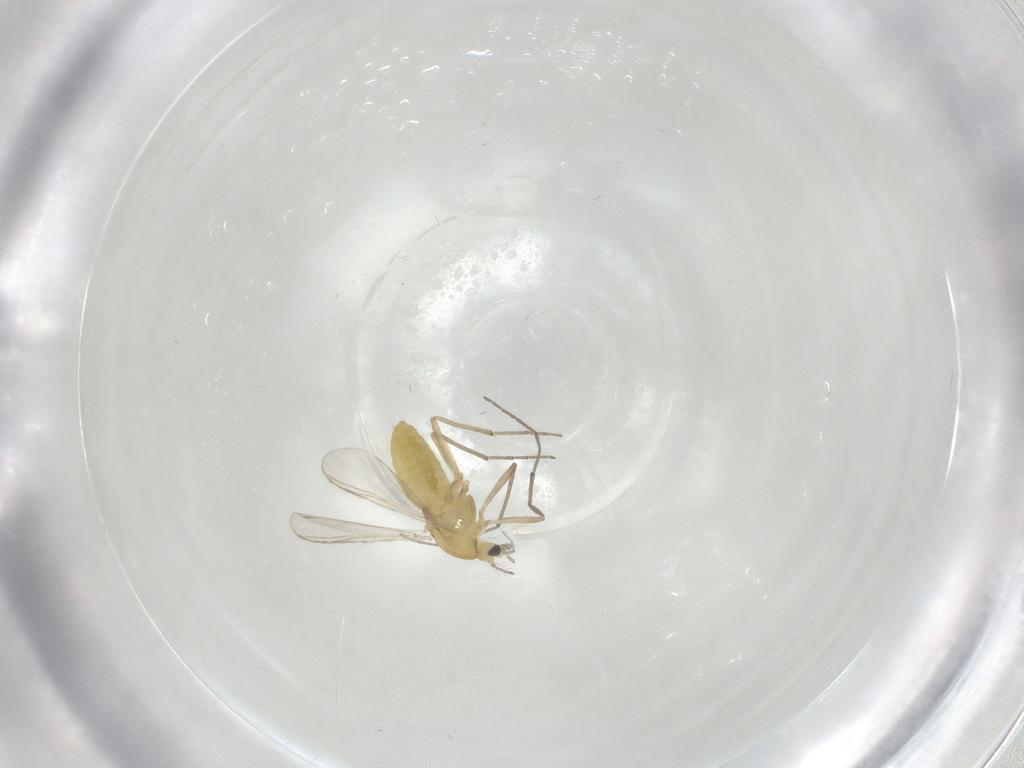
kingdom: Animalia
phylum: Arthropoda
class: Insecta
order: Diptera
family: Chironomidae
